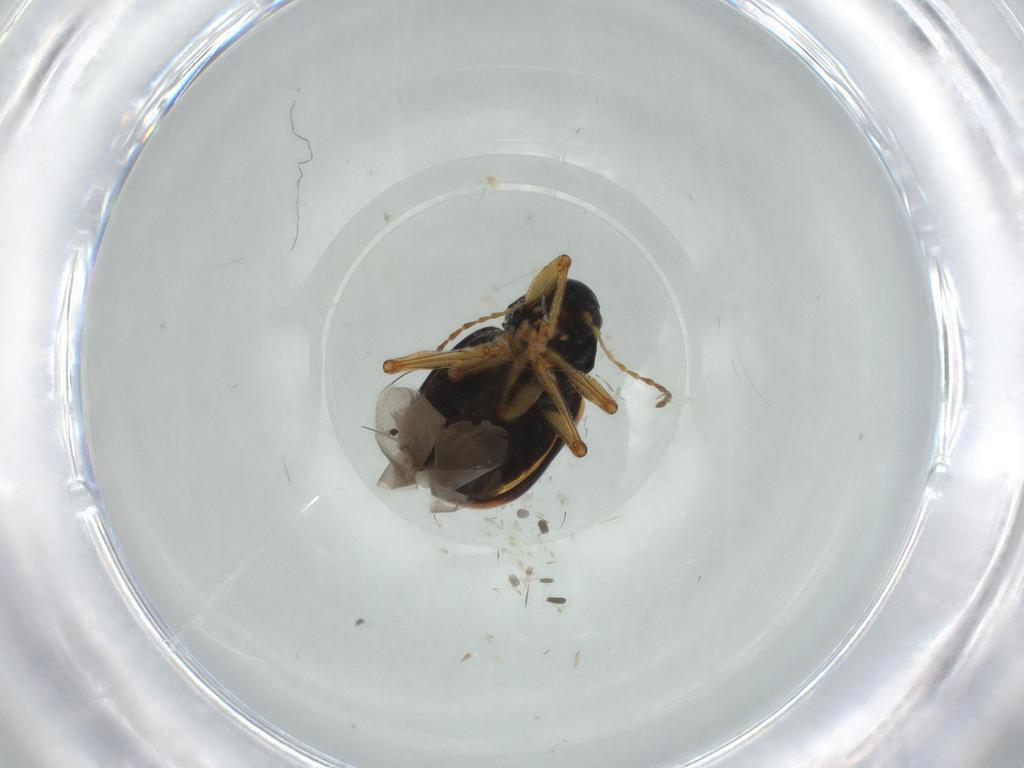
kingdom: Animalia
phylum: Arthropoda
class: Insecta
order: Coleoptera
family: Chrysomelidae
